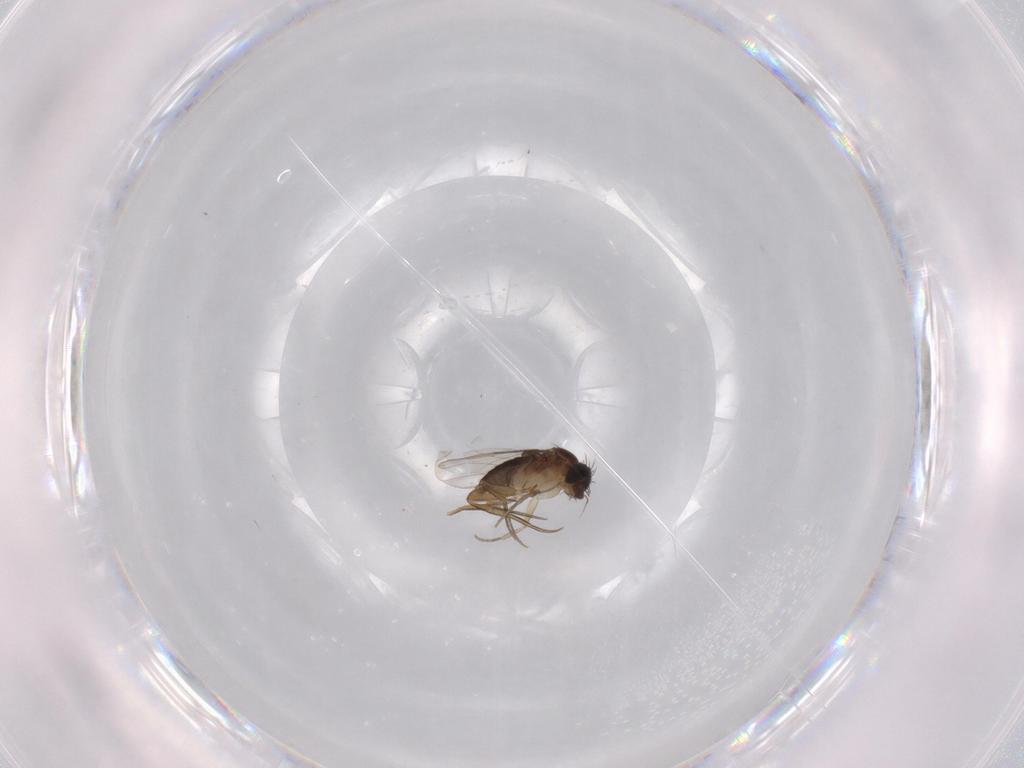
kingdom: Animalia
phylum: Arthropoda
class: Insecta
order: Diptera
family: Phoridae
